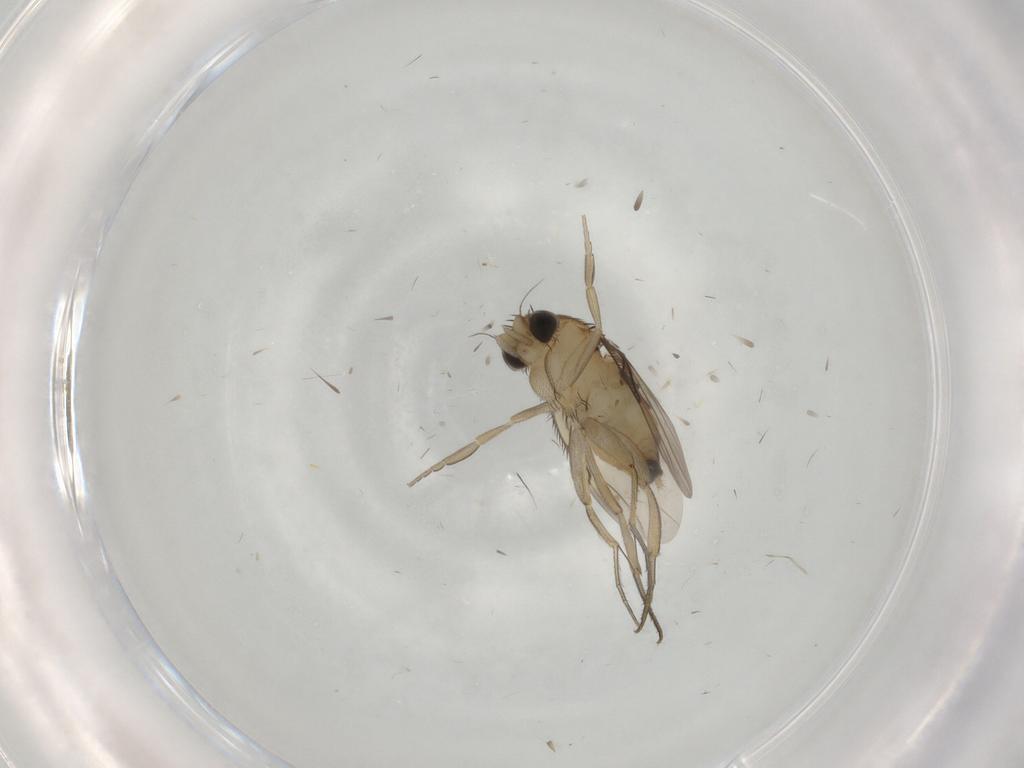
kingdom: Animalia
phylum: Arthropoda
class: Insecta
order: Diptera
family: Phoridae
